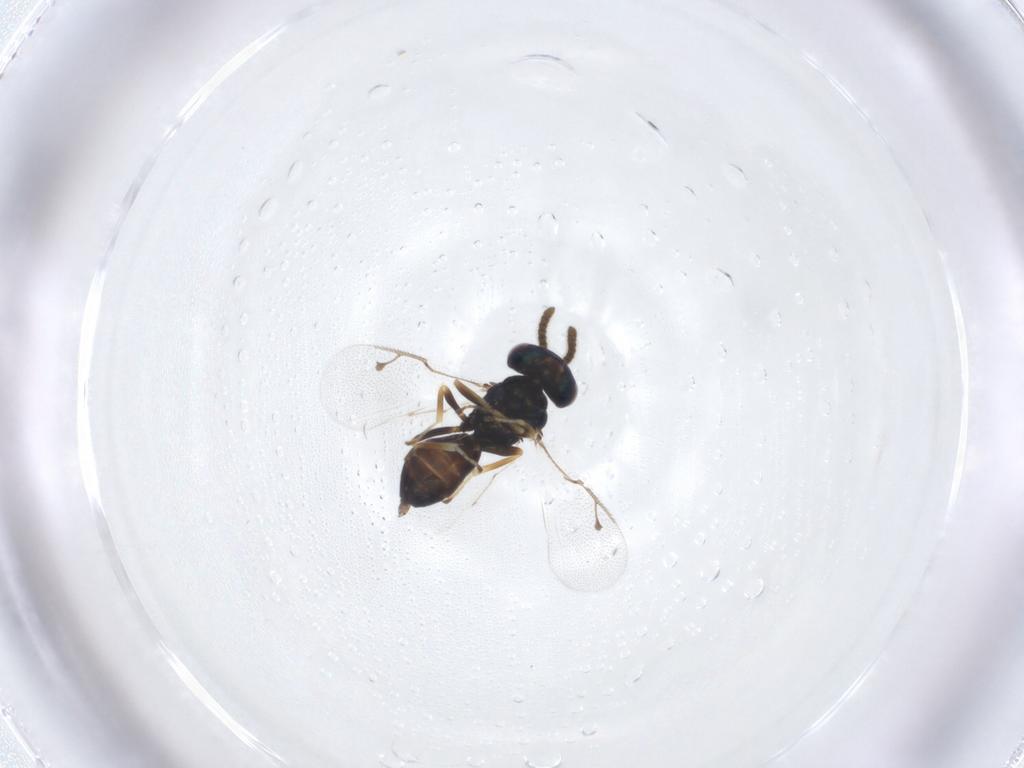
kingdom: Animalia
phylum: Arthropoda
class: Insecta
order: Hymenoptera
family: Pteromalidae
